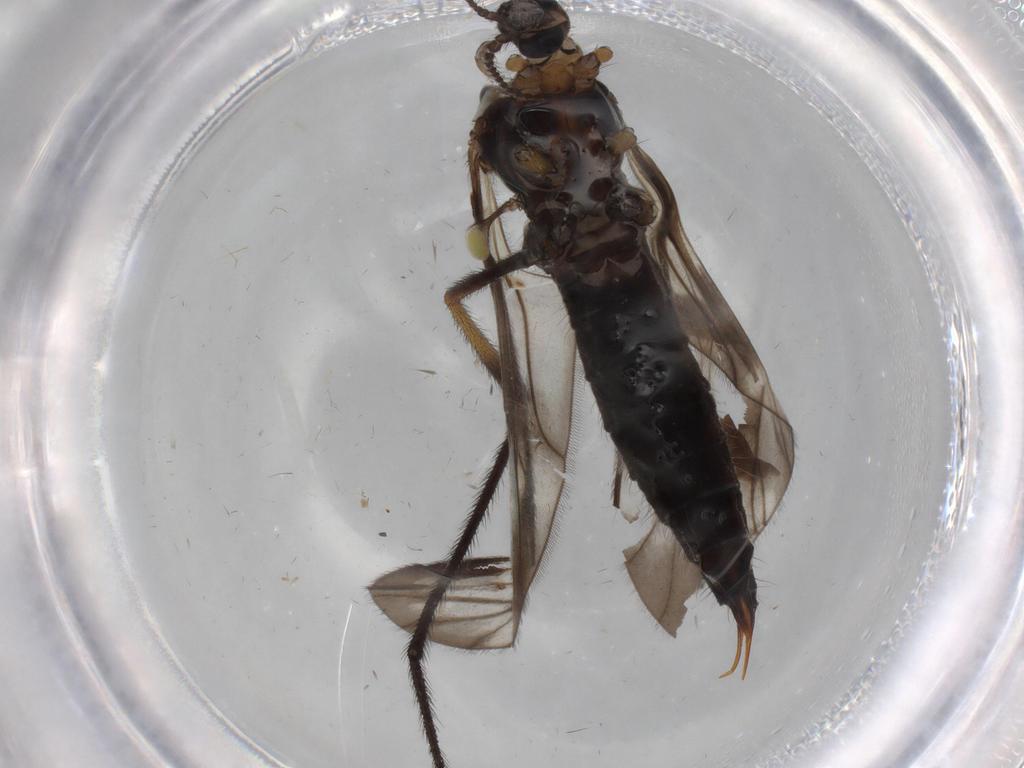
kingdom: Animalia
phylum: Arthropoda
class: Insecta
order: Diptera
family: Limoniidae
